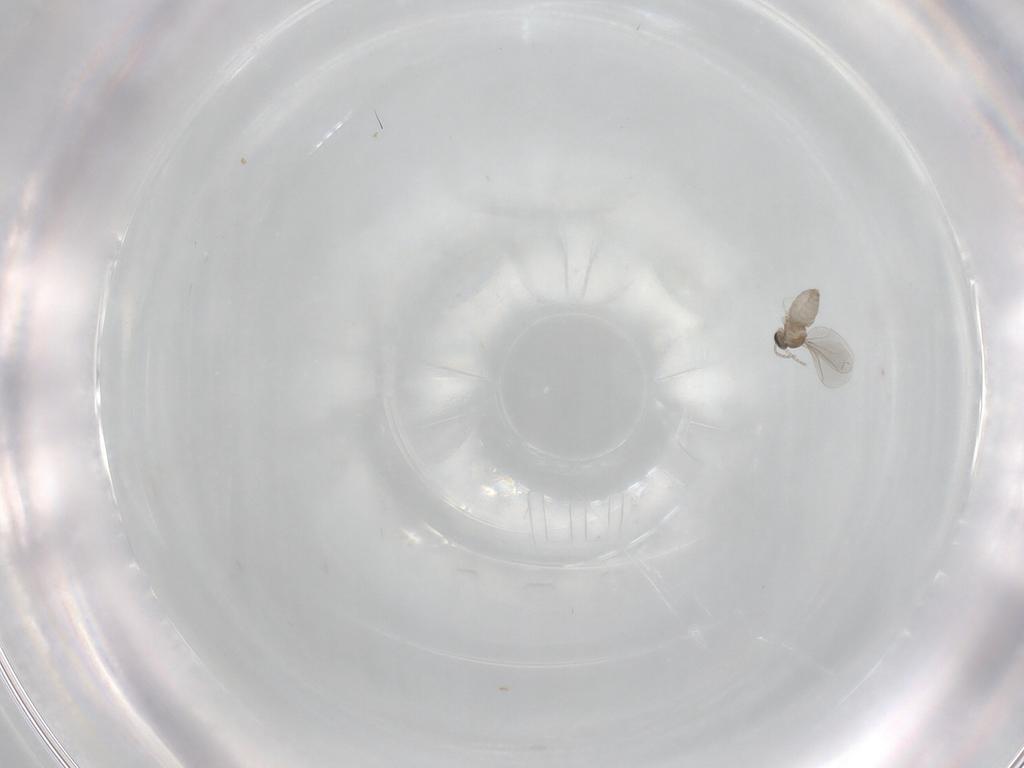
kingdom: Animalia
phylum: Arthropoda
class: Insecta
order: Diptera
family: Cecidomyiidae
